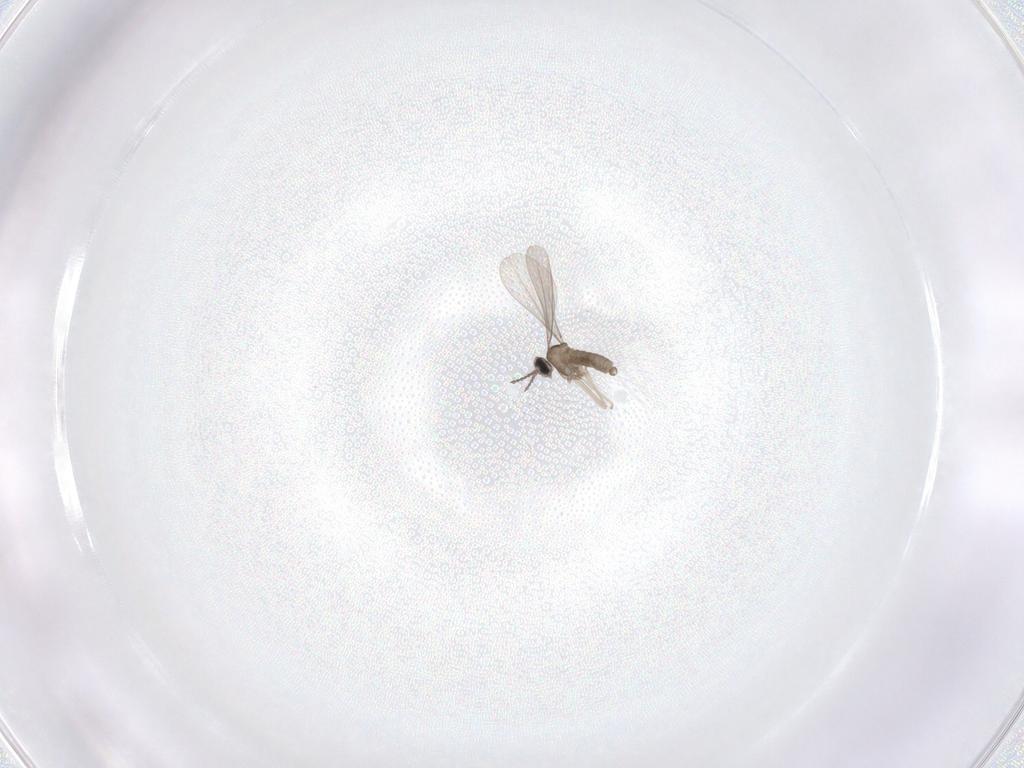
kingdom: Animalia
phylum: Arthropoda
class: Insecta
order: Diptera
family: Cecidomyiidae
